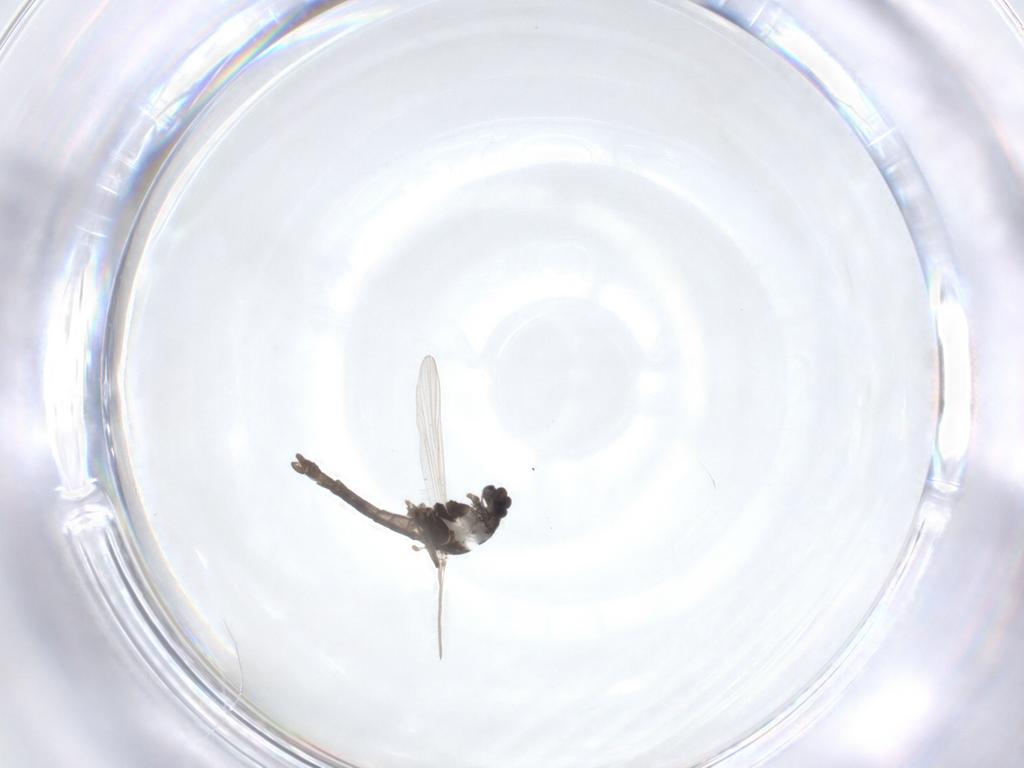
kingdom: Animalia
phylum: Arthropoda
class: Insecta
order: Diptera
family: Chironomidae
